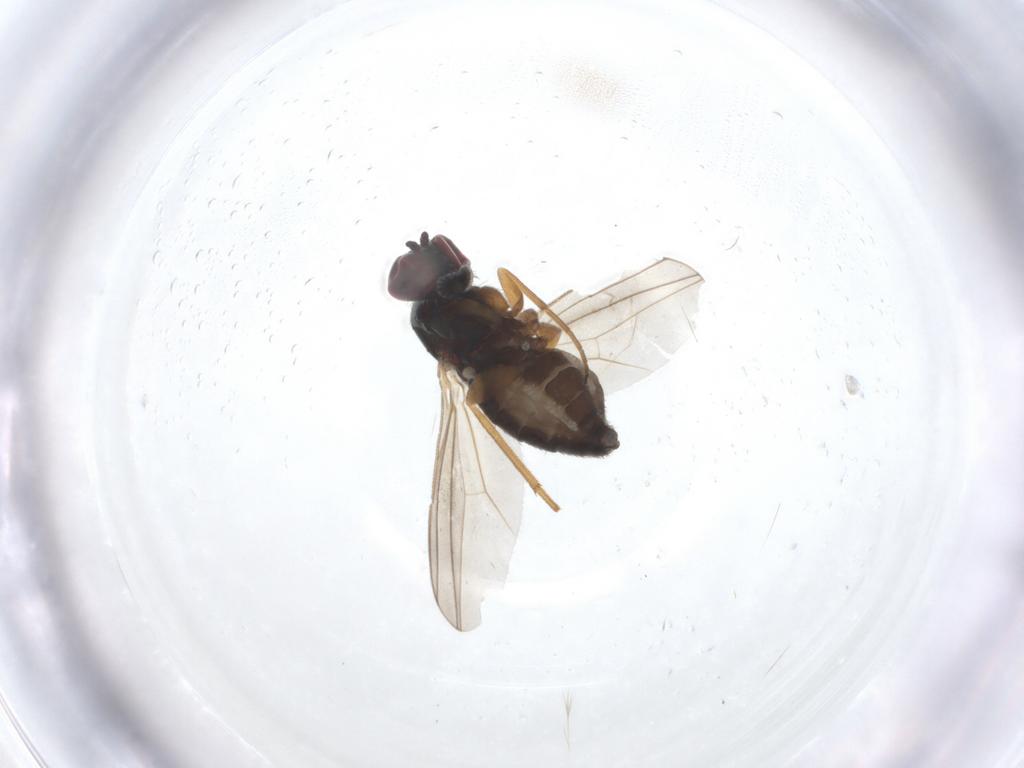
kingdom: Animalia
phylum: Arthropoda
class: Insecta
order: Diptera
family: Dolichopodidae
